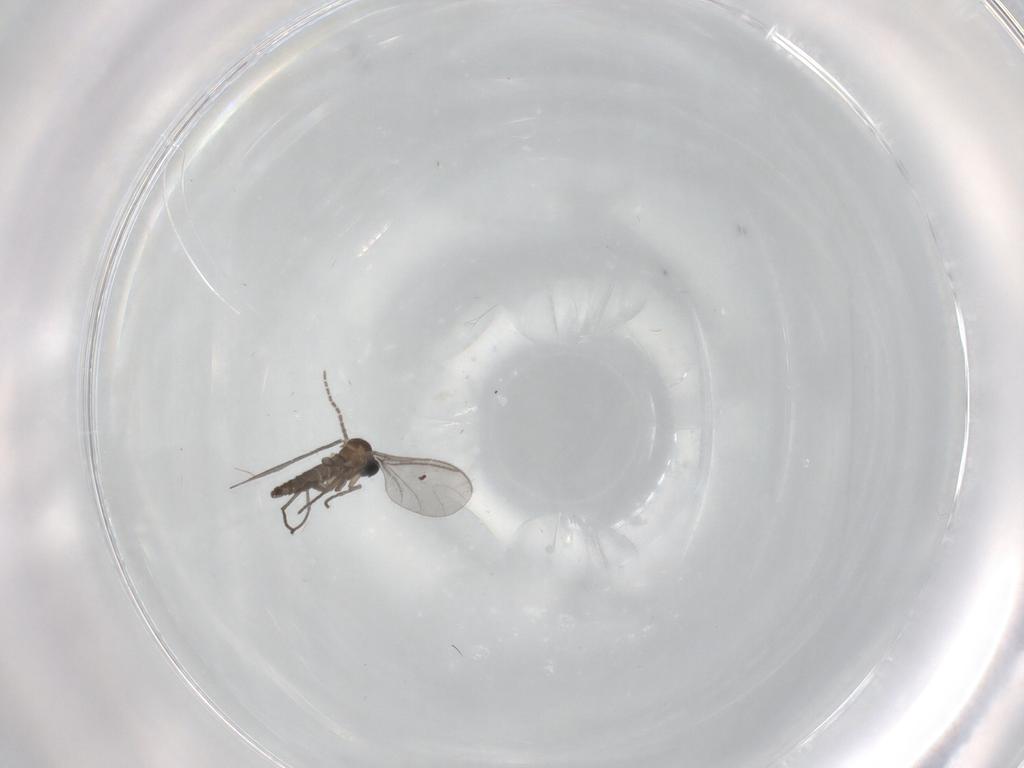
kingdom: Animalia
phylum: Arthropoda
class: Insecta
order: Diptera
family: Sciaridae
